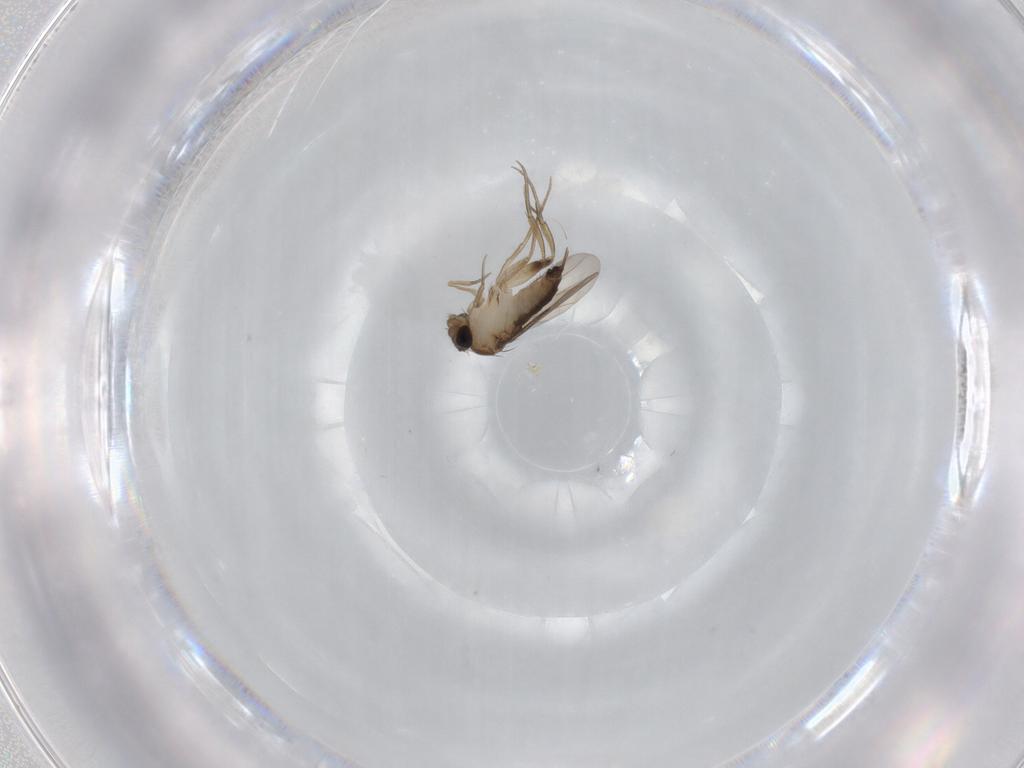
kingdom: Animalia
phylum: Arthropoda
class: Insecta
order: Diptera
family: Phoridae
